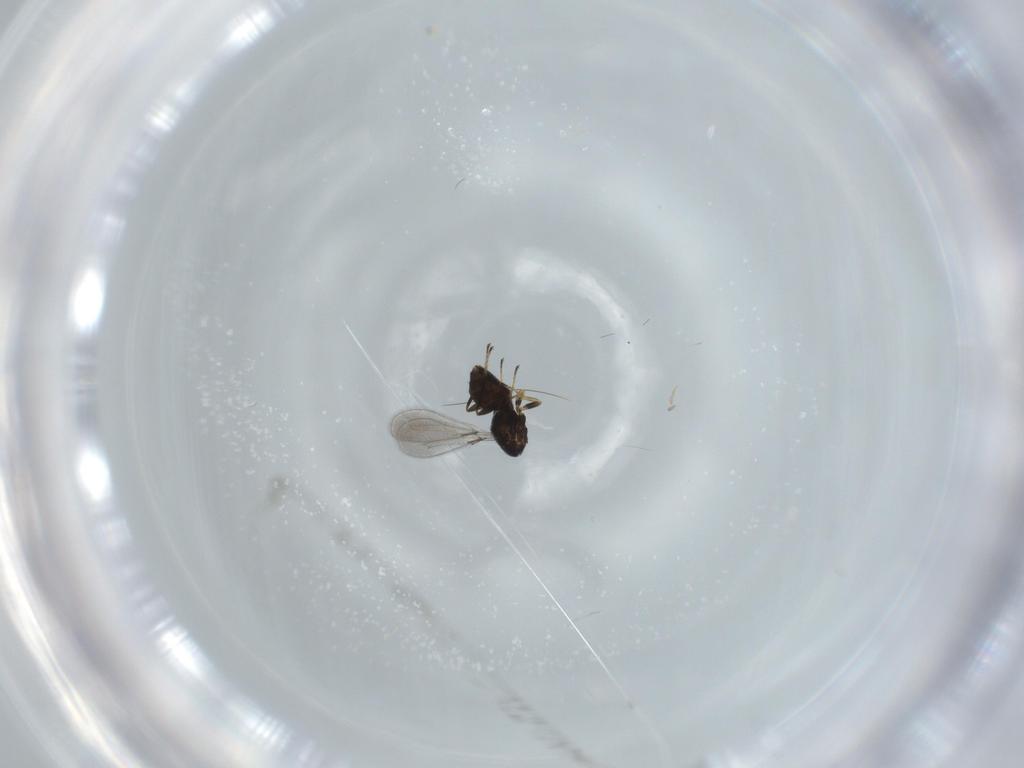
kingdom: Animalia
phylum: Arthropoda
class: Insecta
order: Hymenoptera
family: Mymaridae
